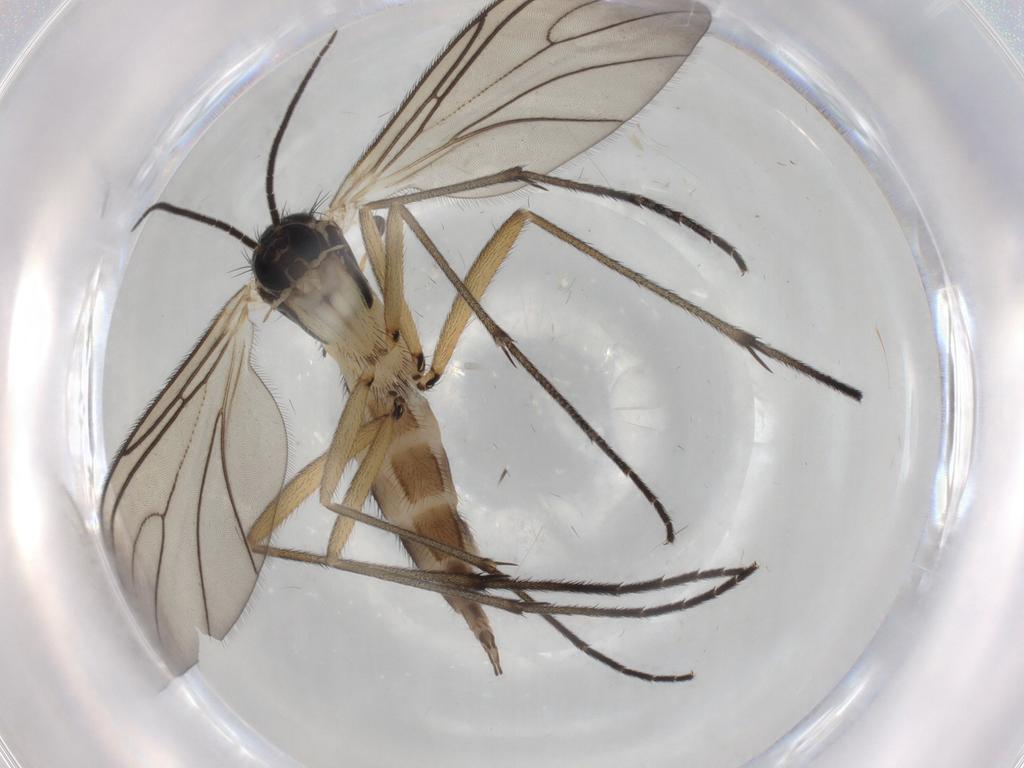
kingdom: Animalia
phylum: Arthropoda
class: Insecta
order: Diptera
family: Sciaridae
